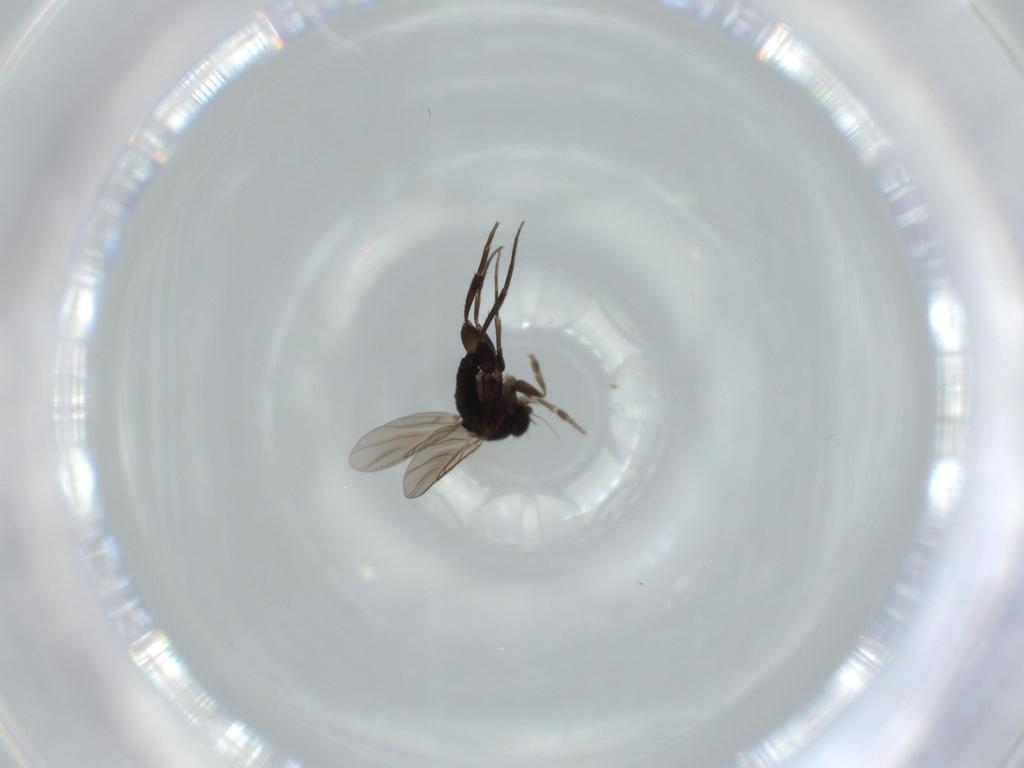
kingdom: Animalia
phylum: Arthropoda
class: Insecta
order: Diptera
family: Phoridae
